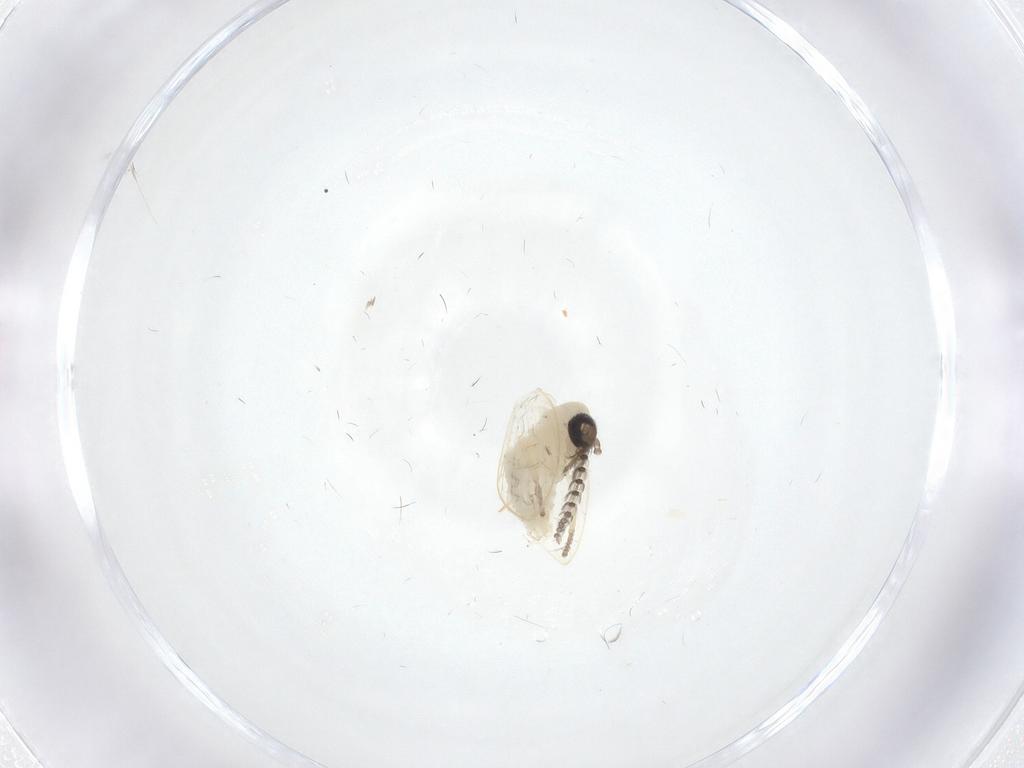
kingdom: Animalia
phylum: Arthropoda
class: Insecta
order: Diptera
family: Psychodidae
